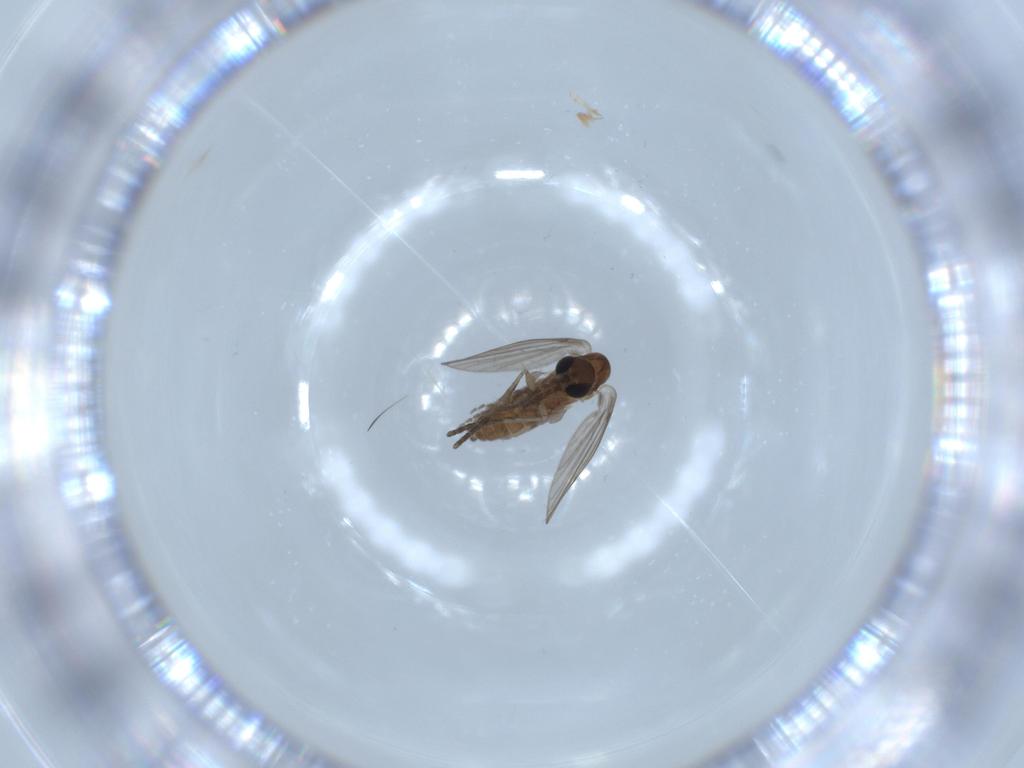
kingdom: Animalia
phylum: Arthropoda
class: Insecta
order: Diptera
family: Psychodidae
